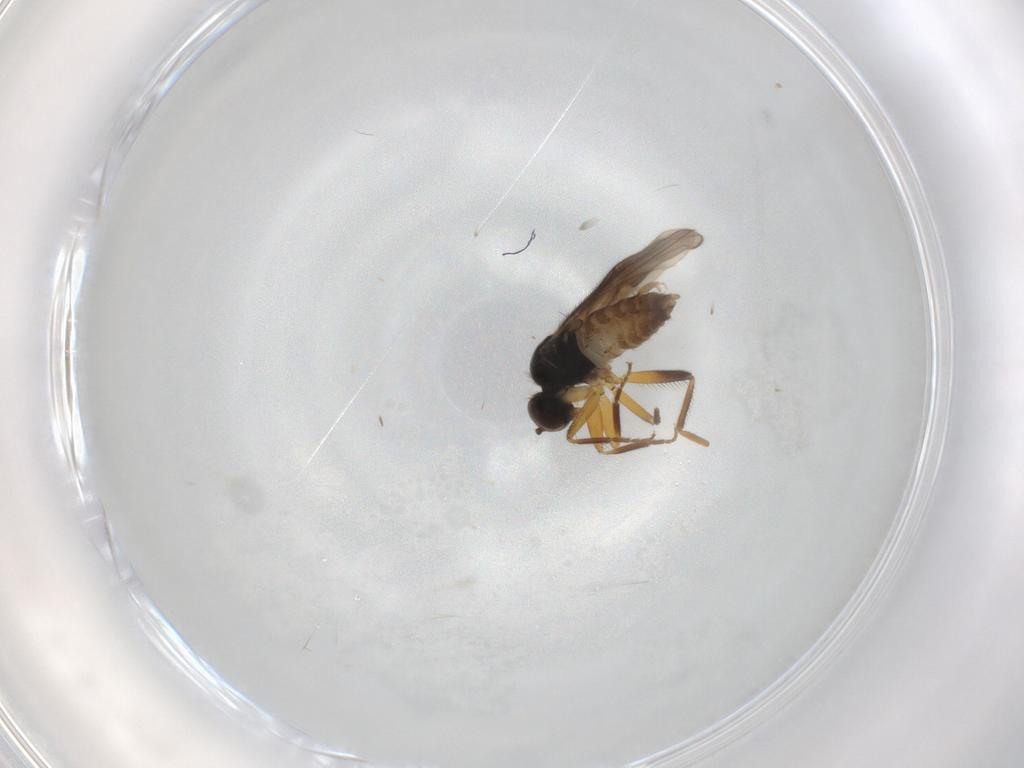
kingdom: Animalia
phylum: Arthropoda
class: Insecta
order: Diptera
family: Hybotidae
